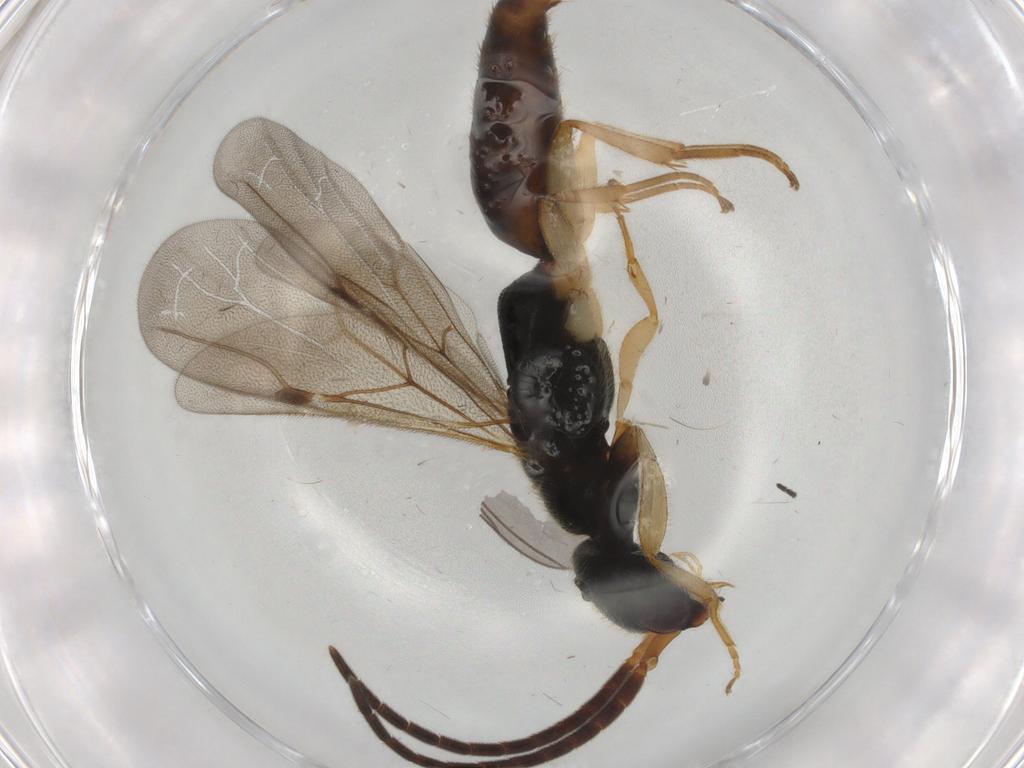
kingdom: Animalia
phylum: Arthropoda
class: Insecta
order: Hymenoptera
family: Bethylidae
